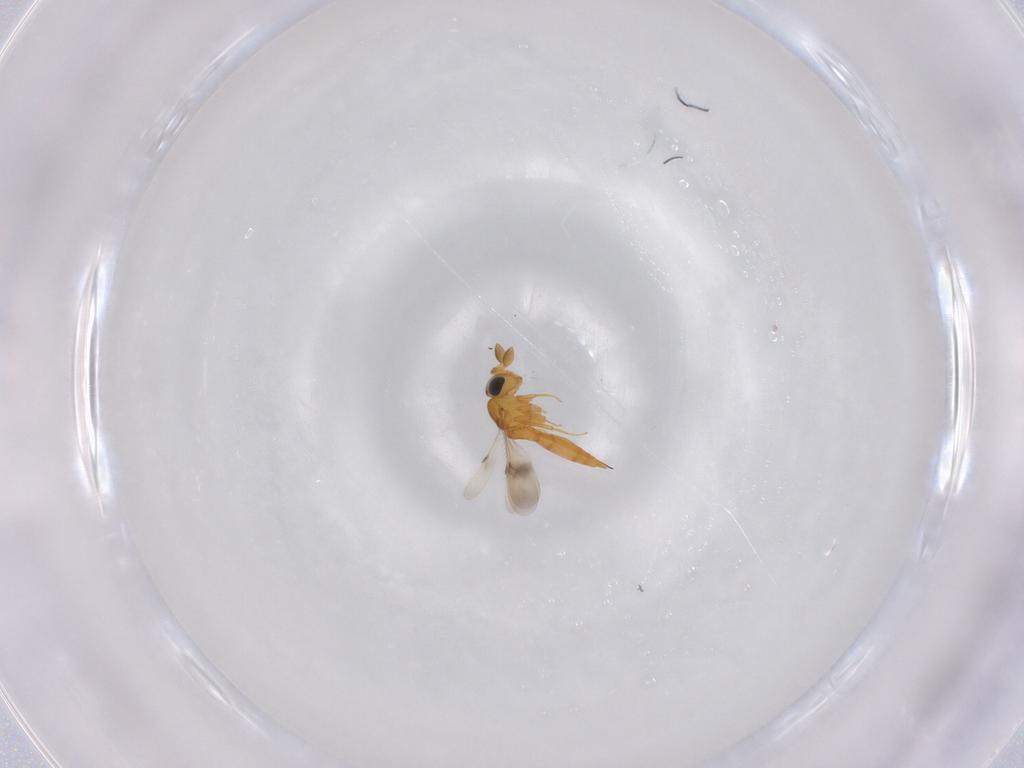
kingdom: Animalia
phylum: Arthropoda
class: Insecta
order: Hymenoptera
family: Scelionidae
